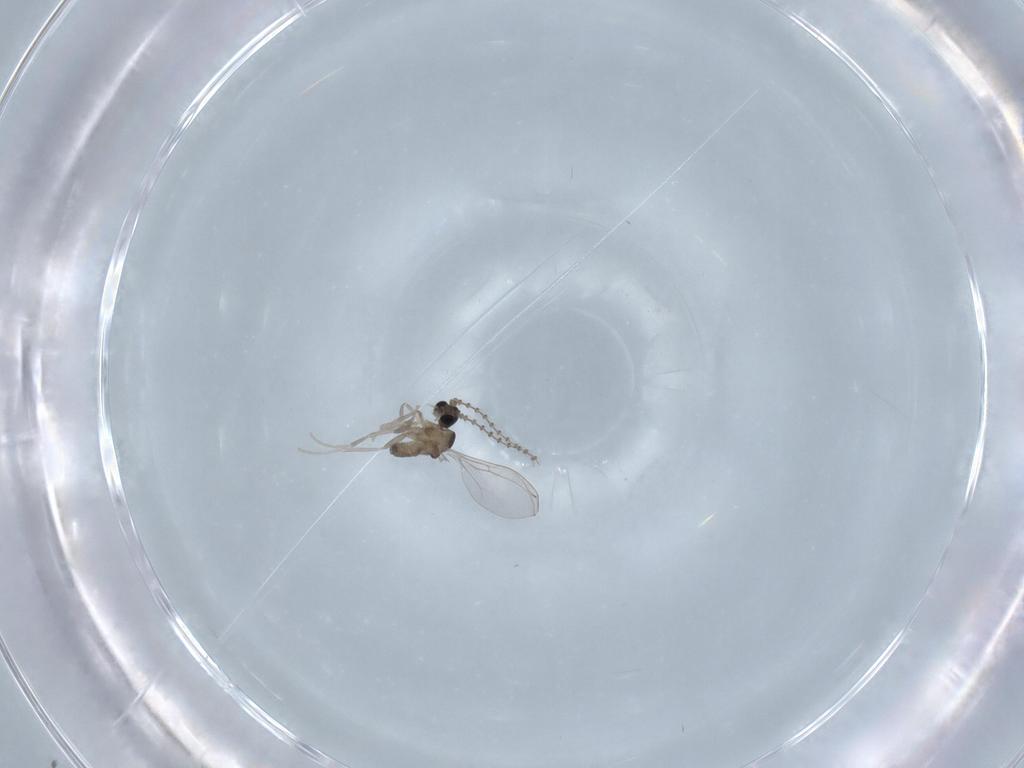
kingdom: Animalia
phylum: Arthropoda
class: Insecta
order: Diptera
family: Cecidomyiidae
